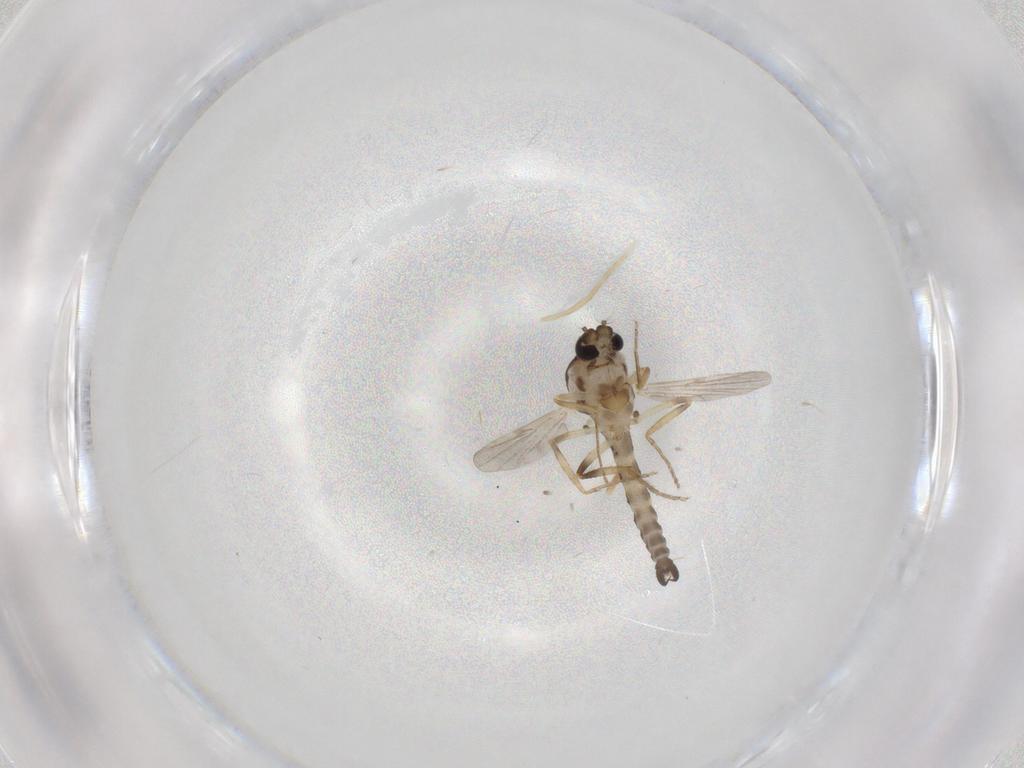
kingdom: Animalia
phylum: Arthropoda
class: Insecta
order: Diptera
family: Ceratopogonidae
